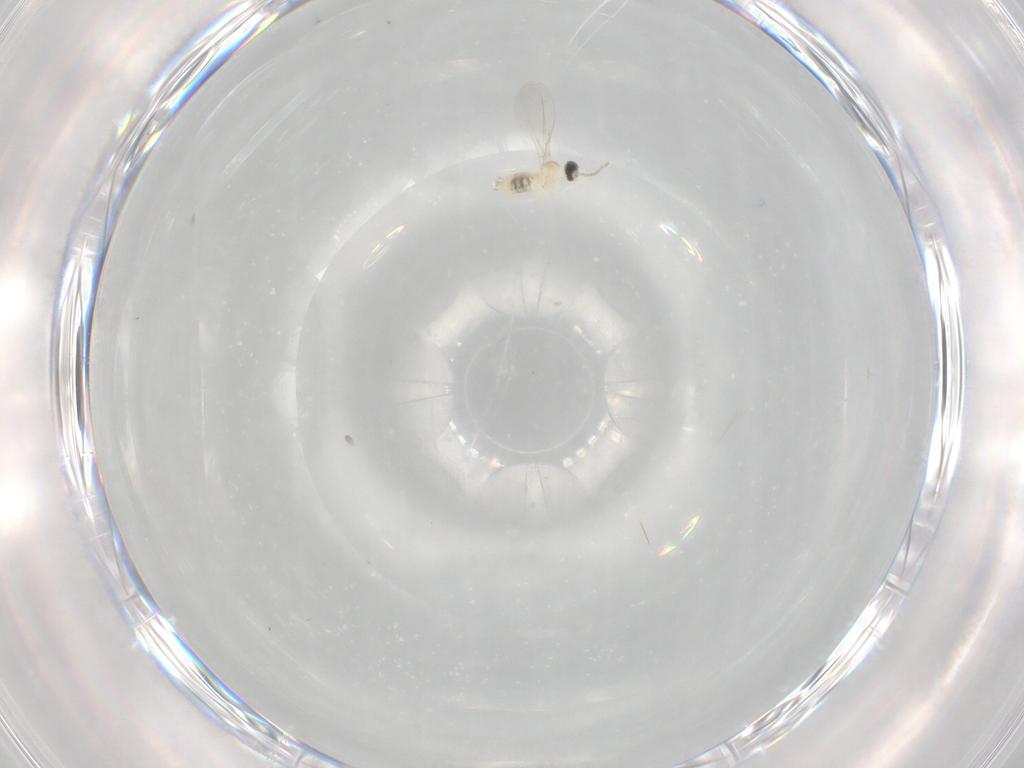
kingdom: Animalia
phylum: Arthropoda
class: Insecta
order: Diptera
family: Cecidomyiidae
